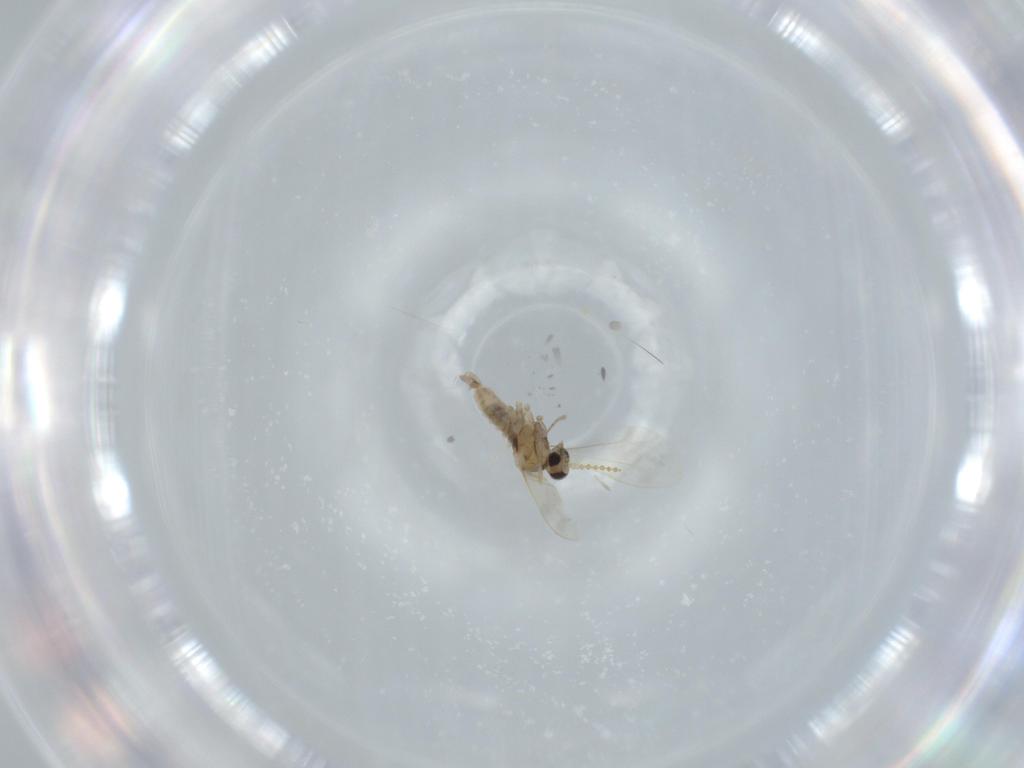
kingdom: Animalia
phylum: Arthropoda
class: Insecta
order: Diptera
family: Cecidomyiidae
